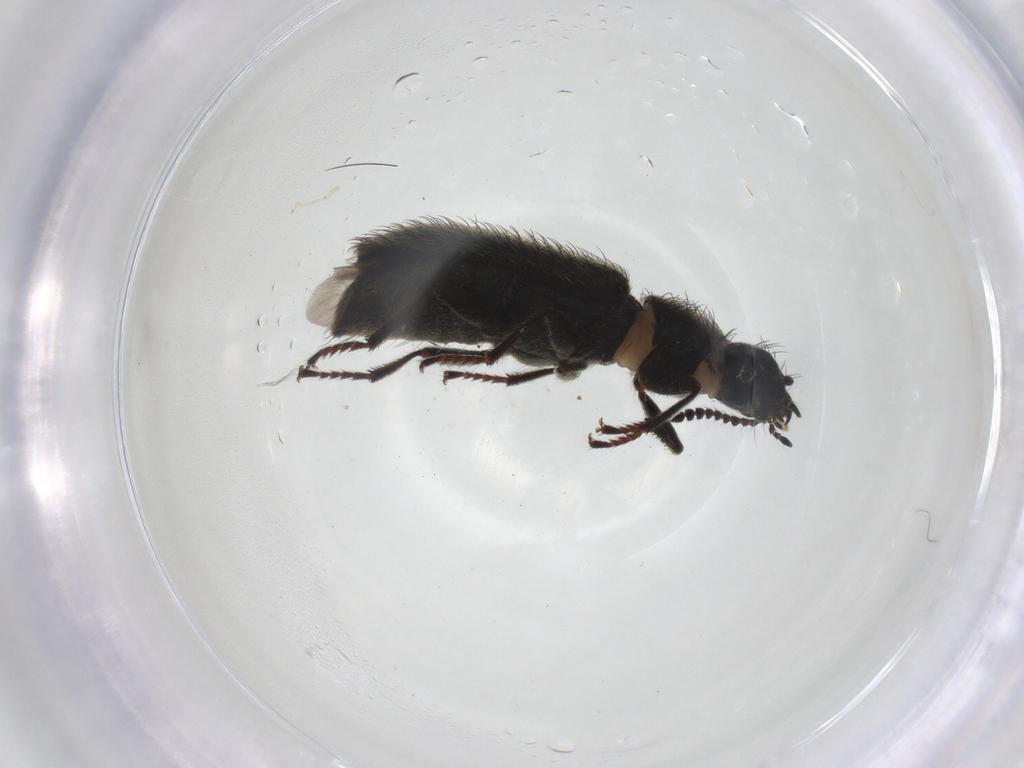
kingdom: Animalia
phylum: Arthropoda
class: Insecta
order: Coleoptera
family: Melyridae
